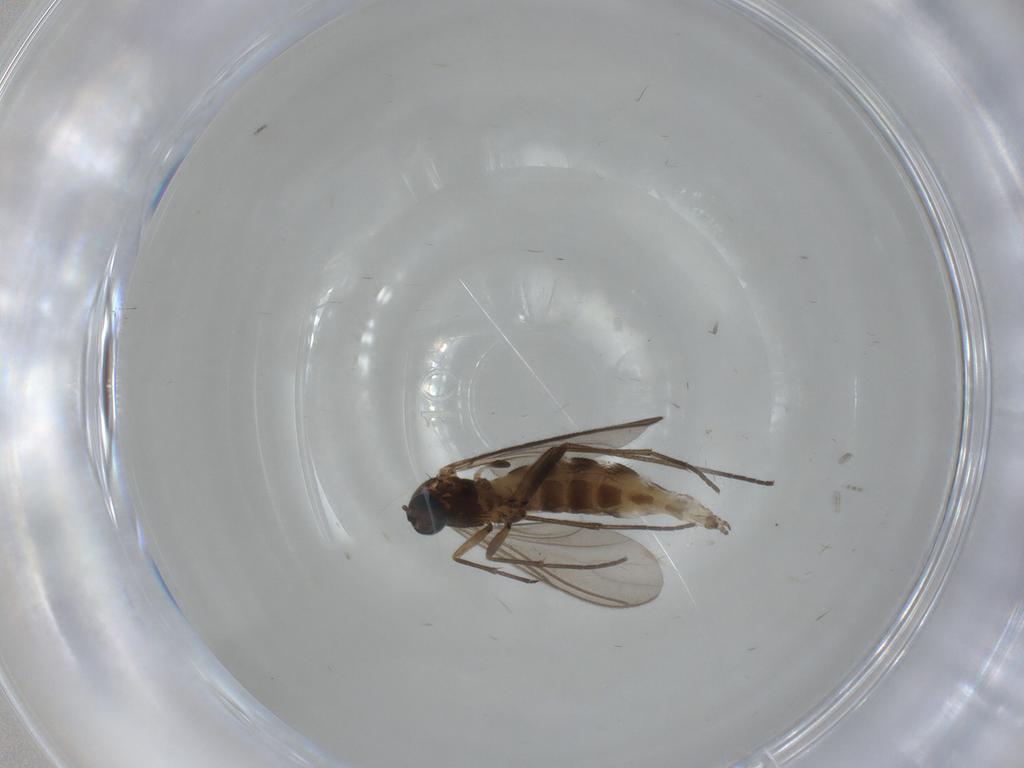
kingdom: Animalia
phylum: Arthropoda
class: Insecta
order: Diptera
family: Sciaridae
